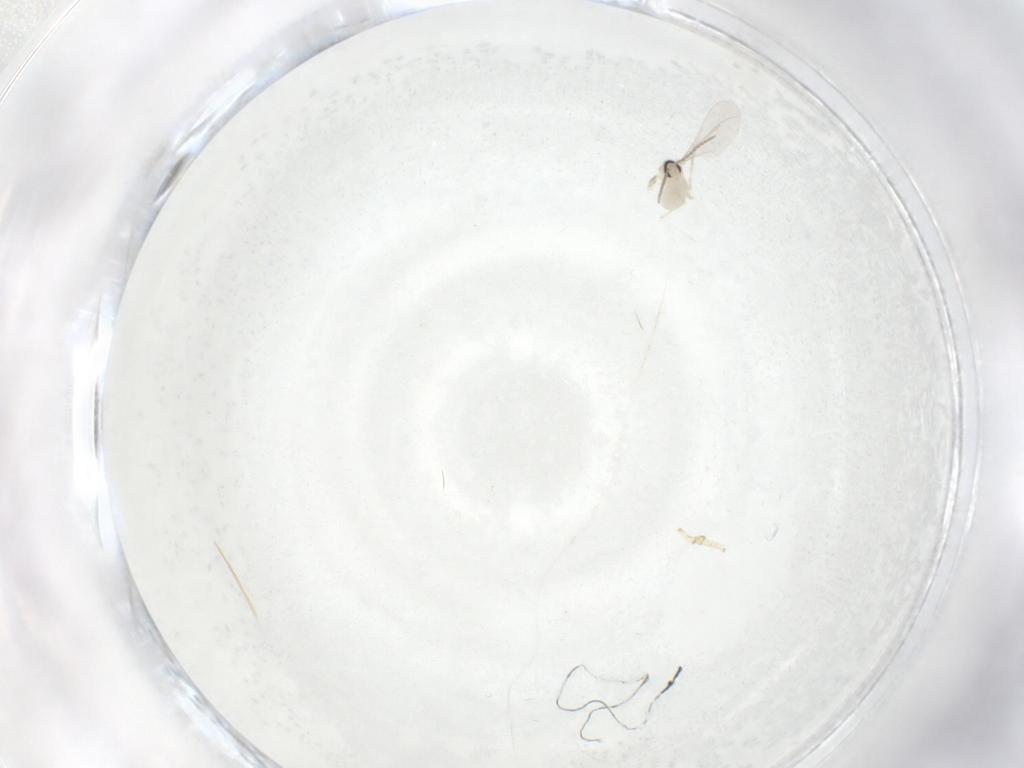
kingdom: Animalia
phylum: Arthropoda
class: Insecta
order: Diptera
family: Cecidomyiidae
